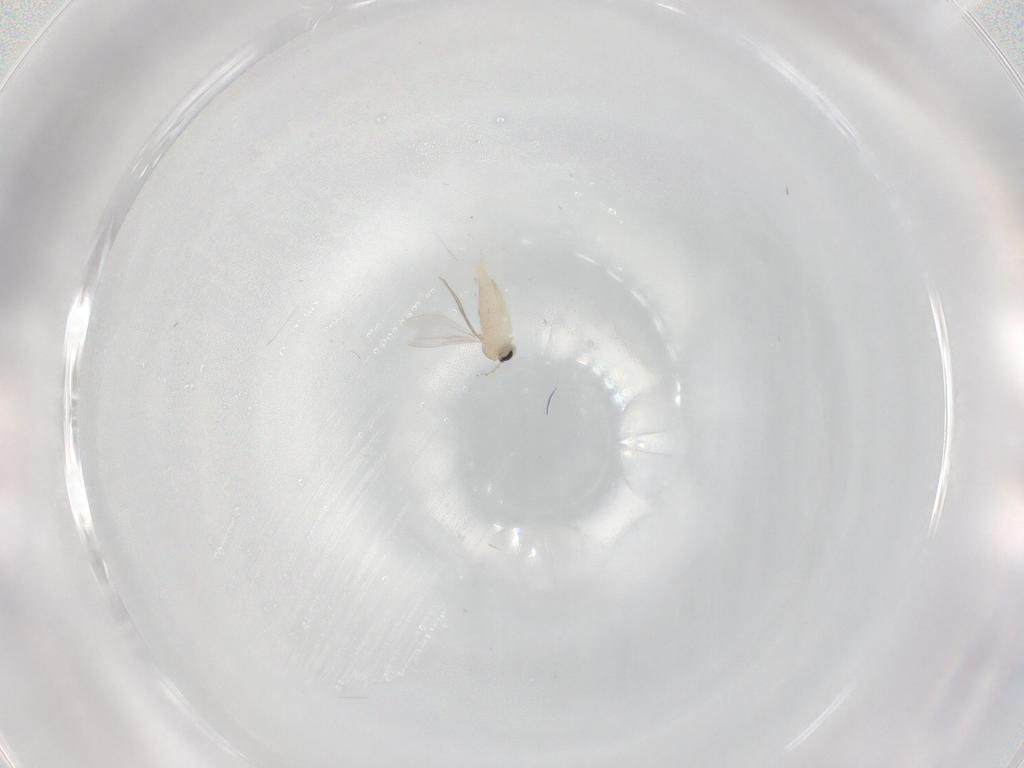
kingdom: Animalia
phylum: Arthropoda
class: Insecta
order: Diptera
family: Cecidomyiidae
